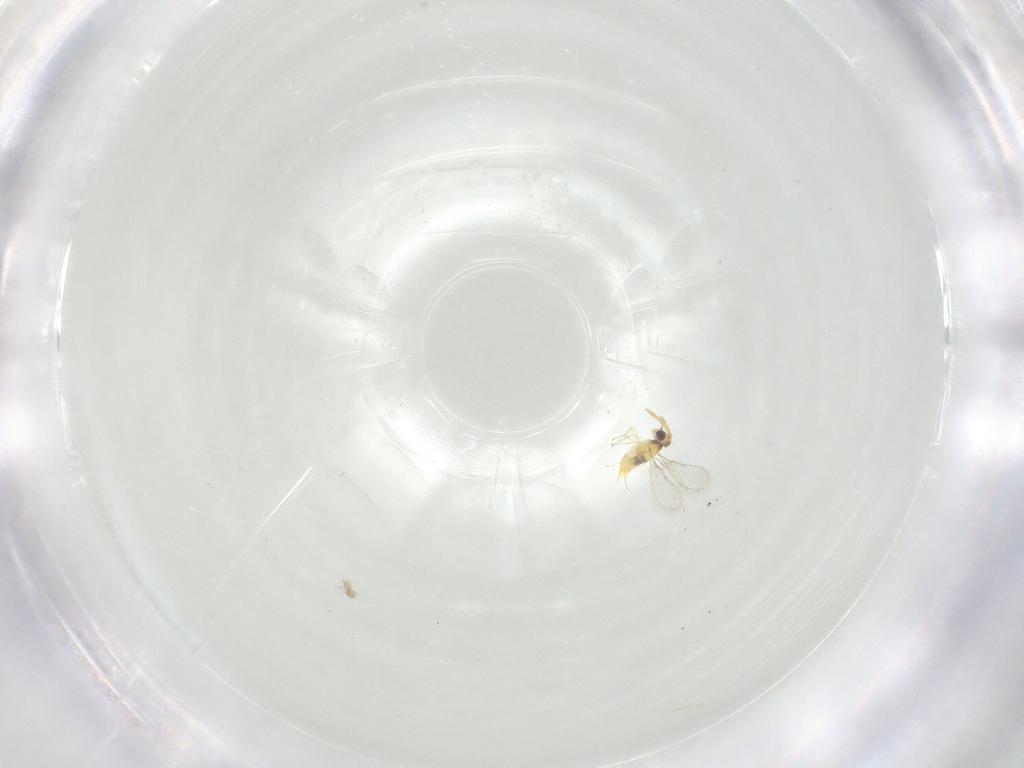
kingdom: Animalia
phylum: Arthropoda
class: Insecta
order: Hymenoptera
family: Aphelinidae
